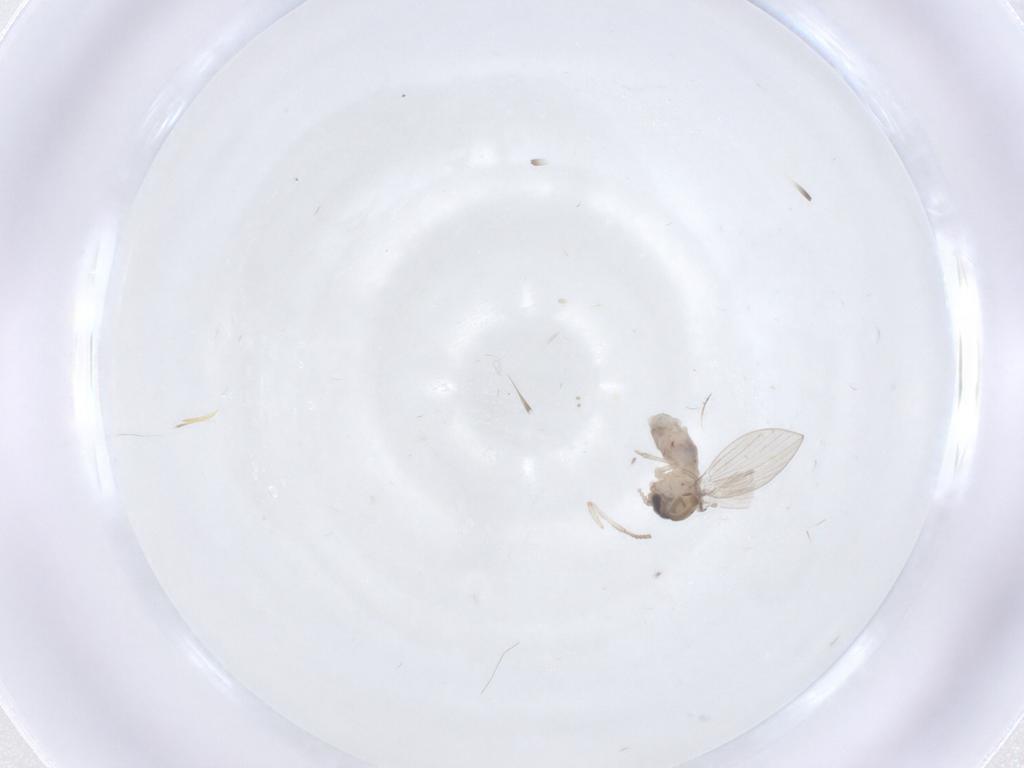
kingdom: Animalia
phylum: Arthropoda
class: Insecta
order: Diptera
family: Psychodidae
